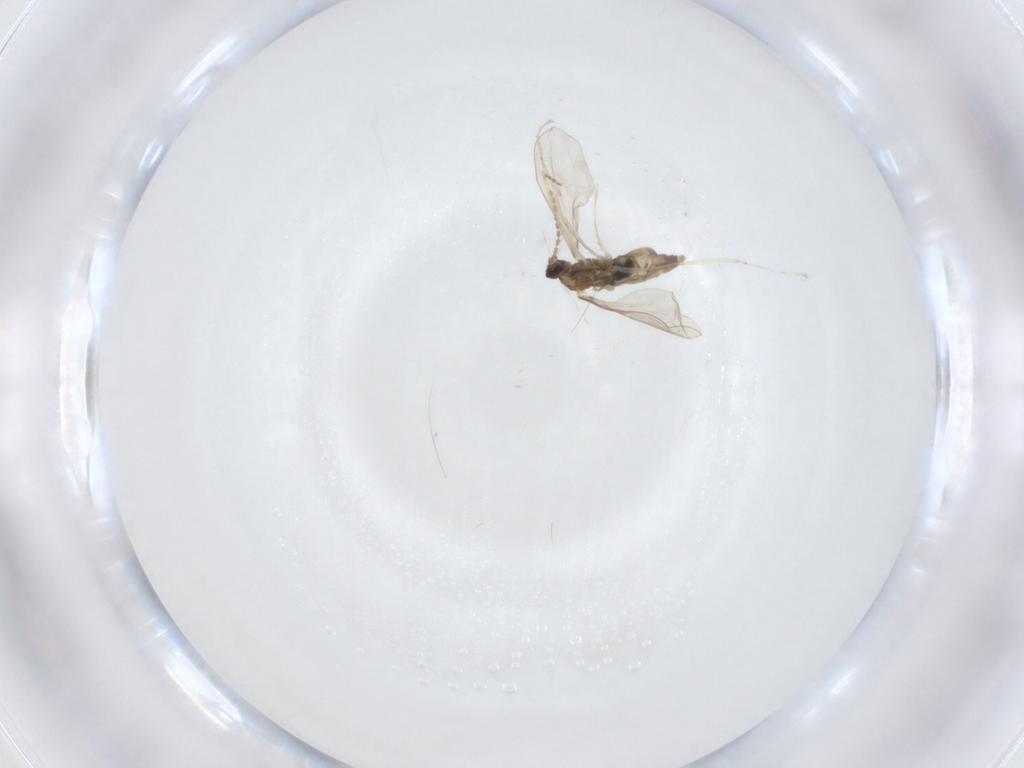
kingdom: Animalia
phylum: Arthropoda
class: Insecta
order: Diptera
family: Cecidomyiidae
